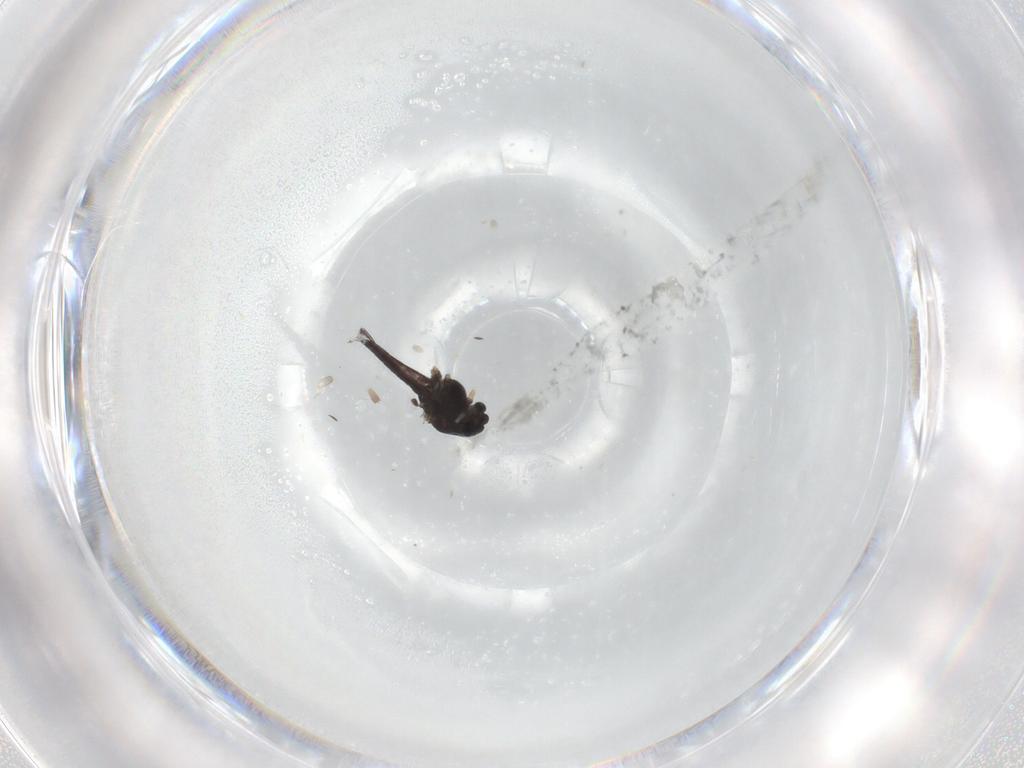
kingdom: Animalia
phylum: Arthropoda
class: Insecta
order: Diptera
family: Chironomidae
